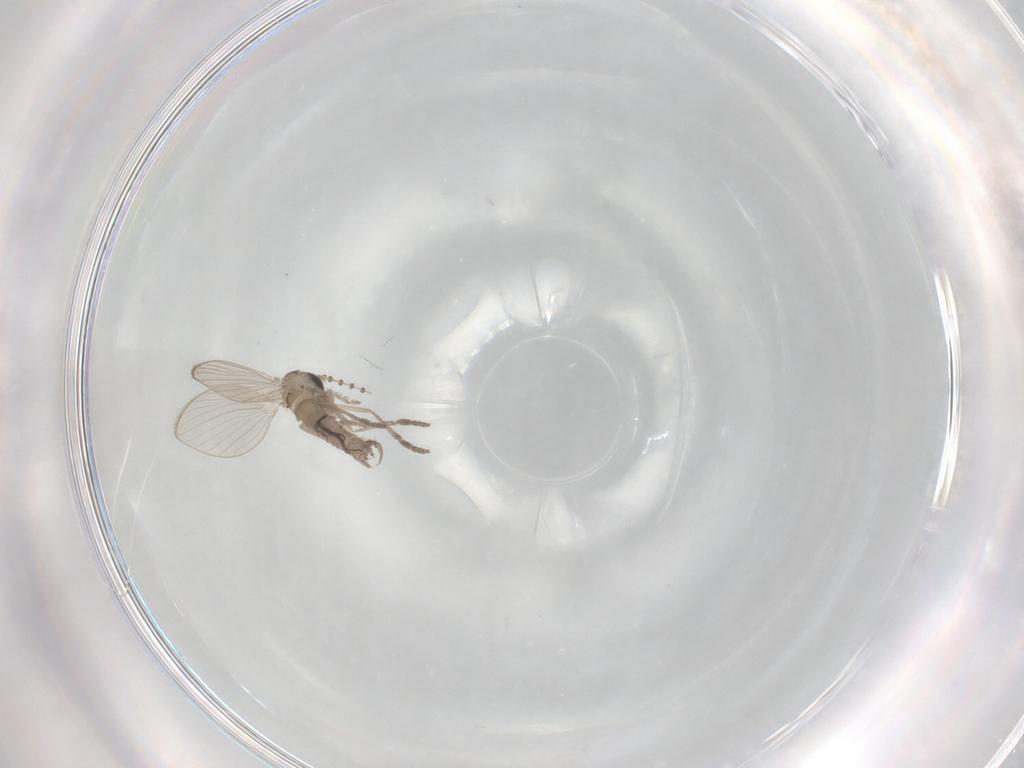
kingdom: Animalia
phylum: Arthropoda
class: Insecta
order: Diptera
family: Psychodidae
